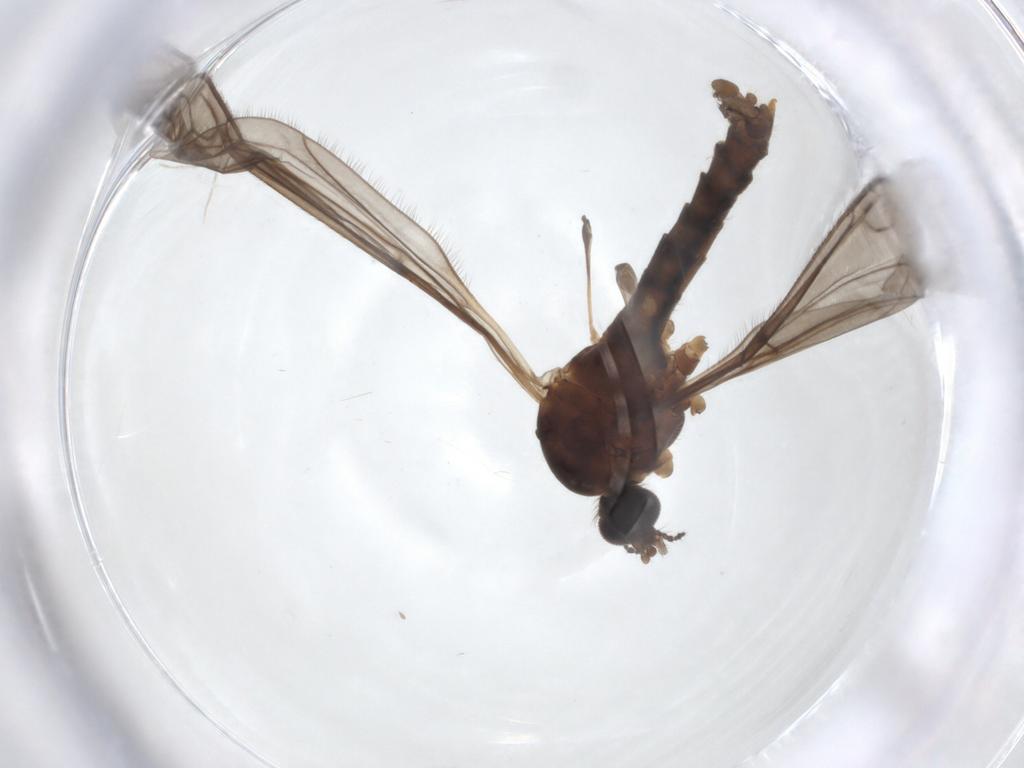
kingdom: Animalia
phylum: Arthropoda
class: Insecta
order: Diptera
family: Limoniidae
